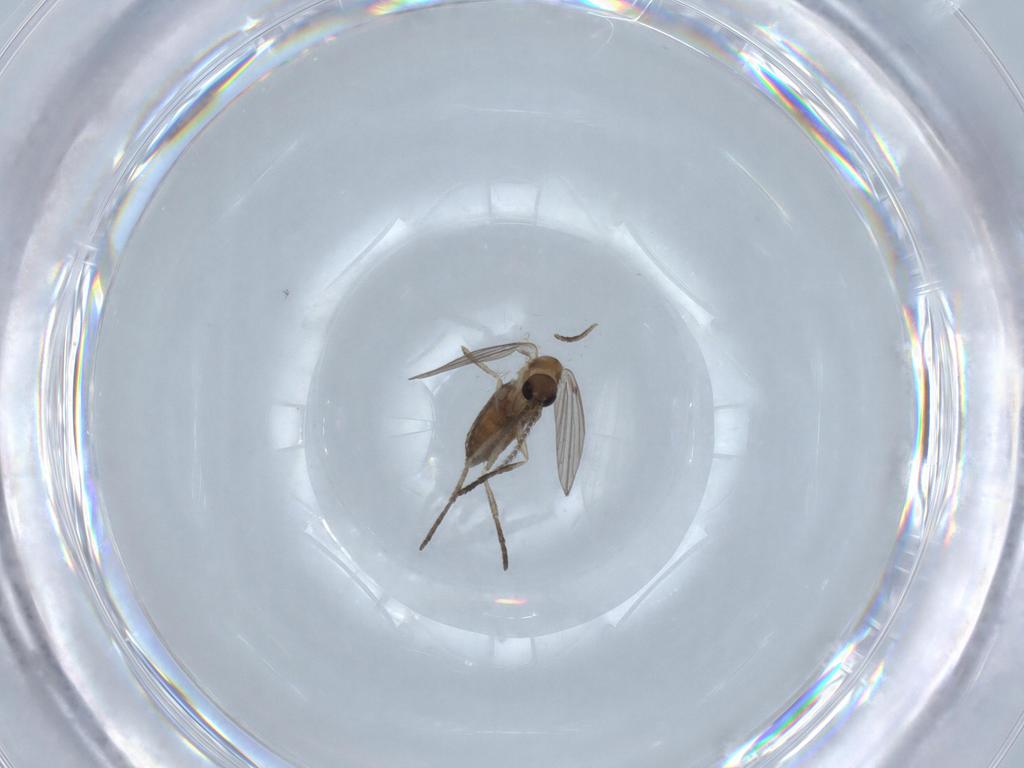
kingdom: Animalia
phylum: Arthropoda
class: Insecta
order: Diptera
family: Psychodidae
